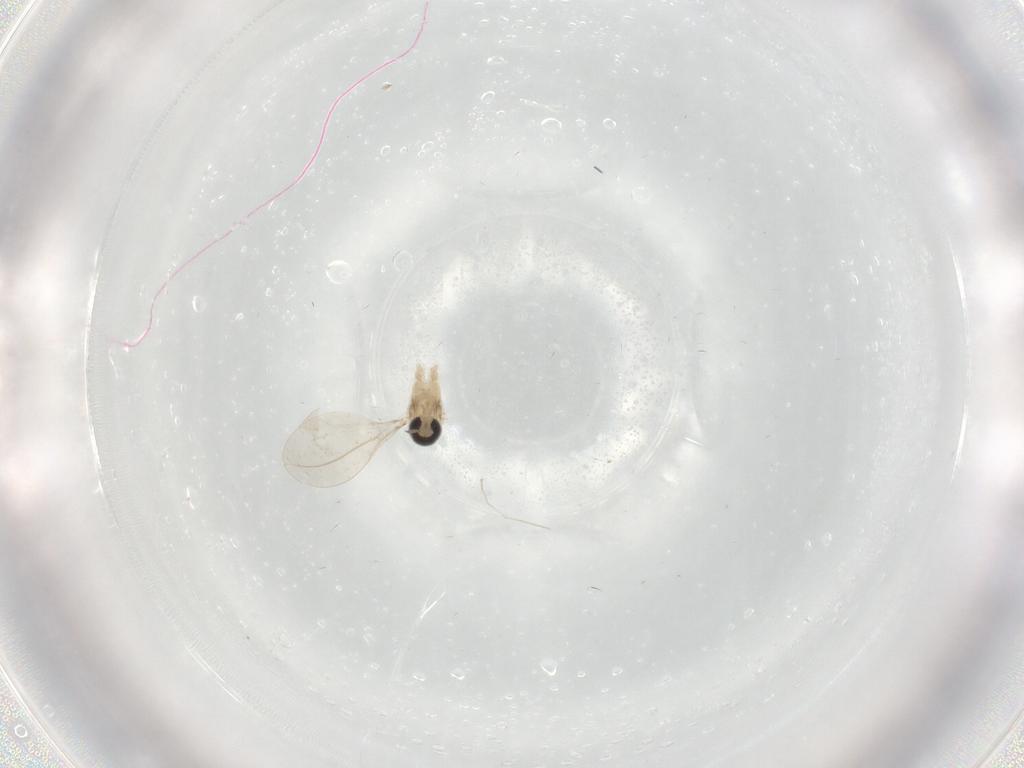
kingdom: Animalia
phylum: Arthropoda
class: Insecta
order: Diptera
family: Cecidomyiidae
